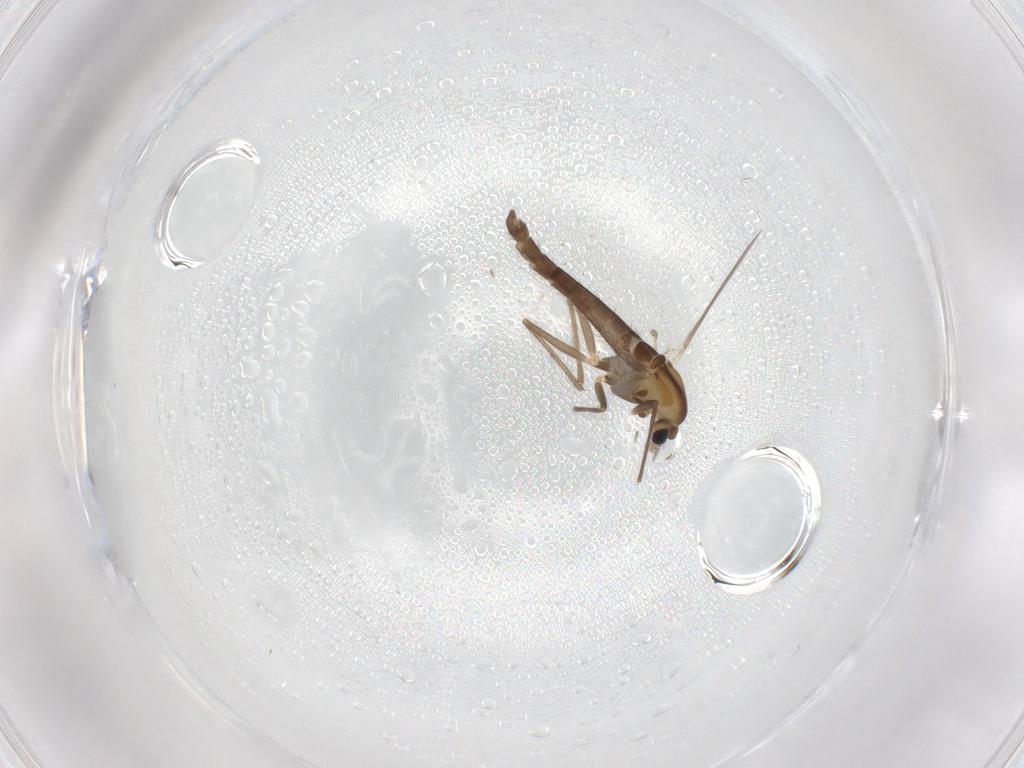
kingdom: Animalia
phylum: Arthropoda
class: Insecta
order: Diptera
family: Chironomidae
